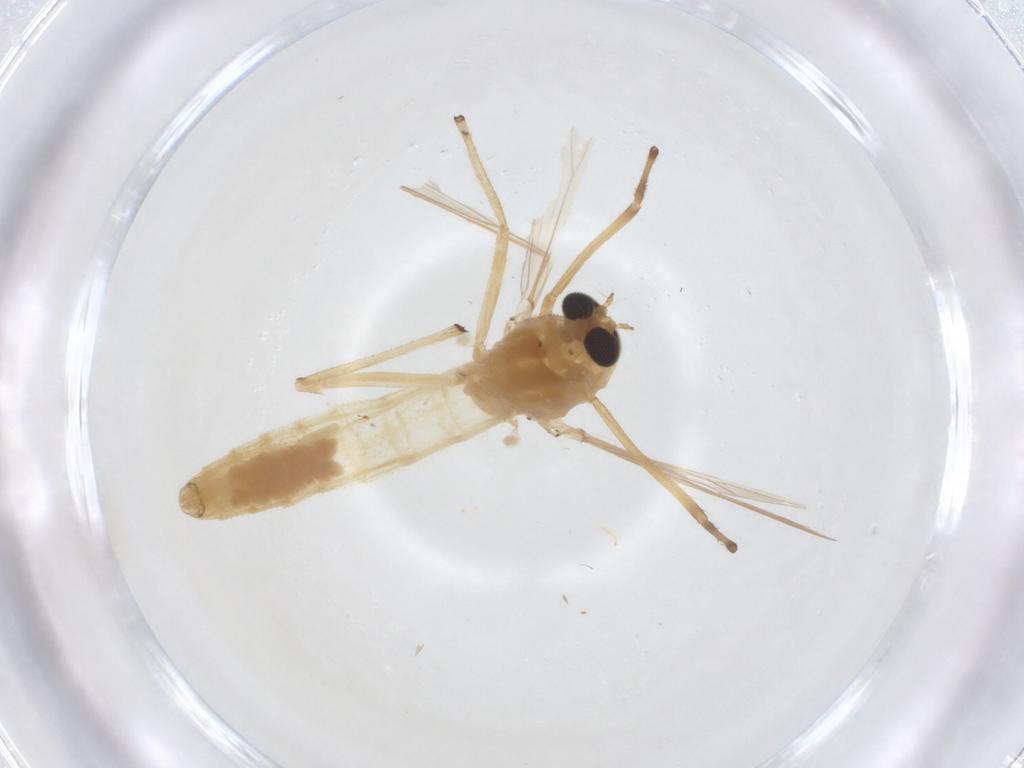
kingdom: Animalia
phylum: Arthropoda
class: Insecta
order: Diptera
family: Chironomidae
